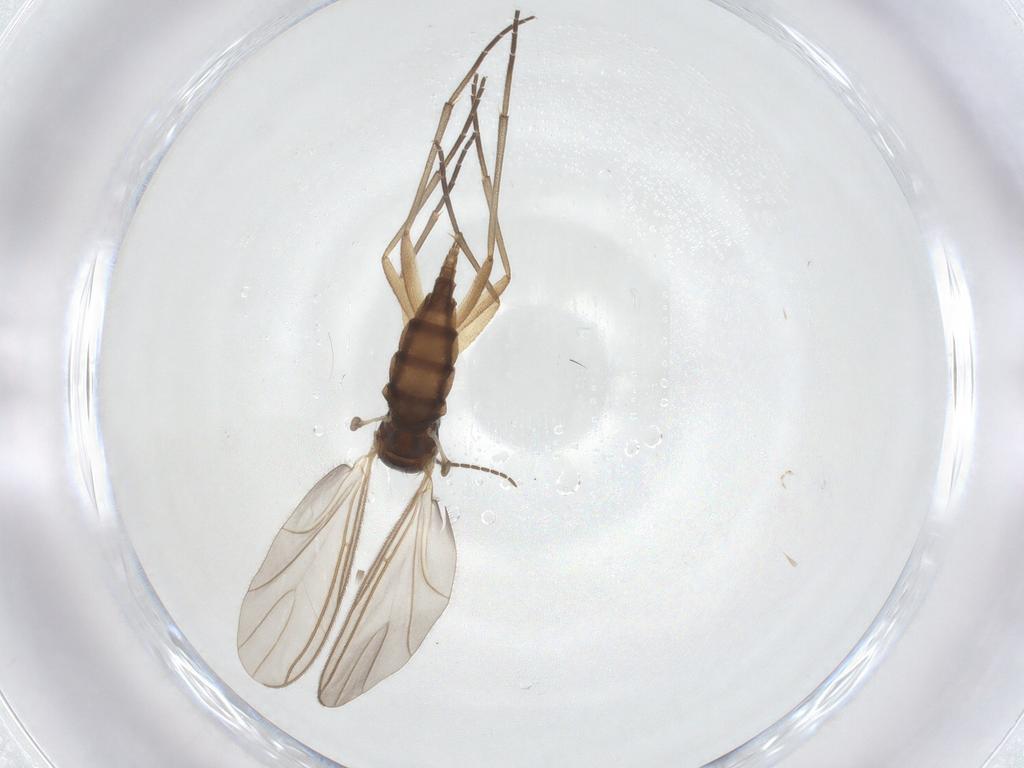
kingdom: Animalia
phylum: Arthropoda
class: Insecta
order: Diptera
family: Sciaridae
